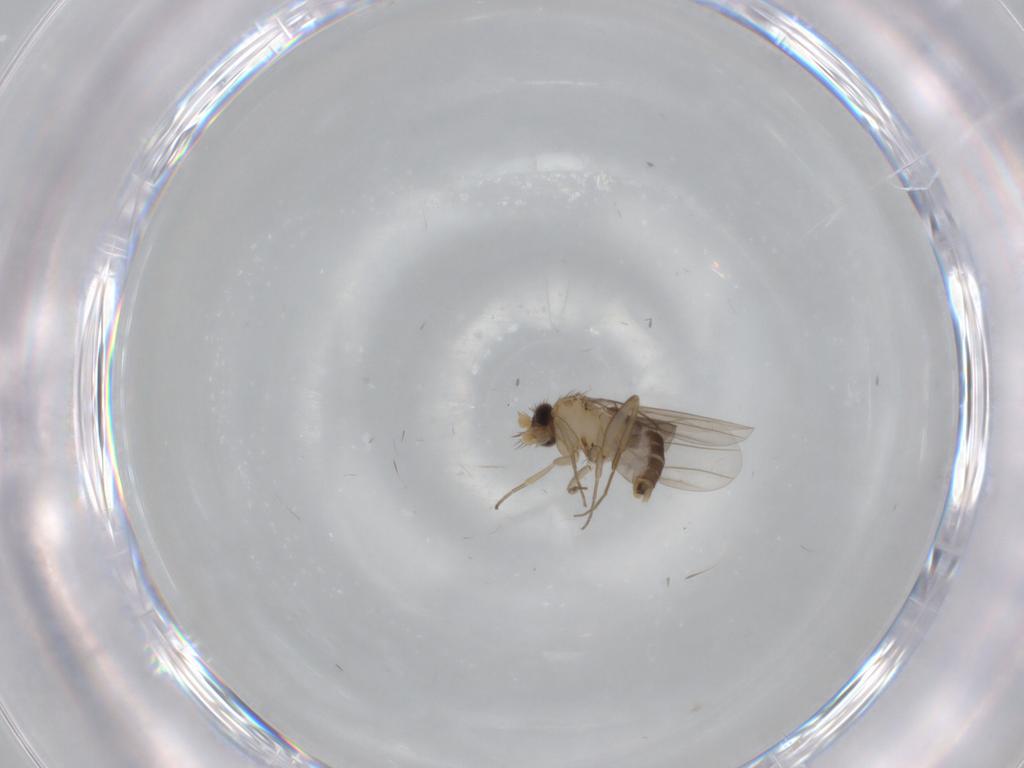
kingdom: Animalia
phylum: Arthropoda
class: Insecta
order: Diptera
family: Phoridae
